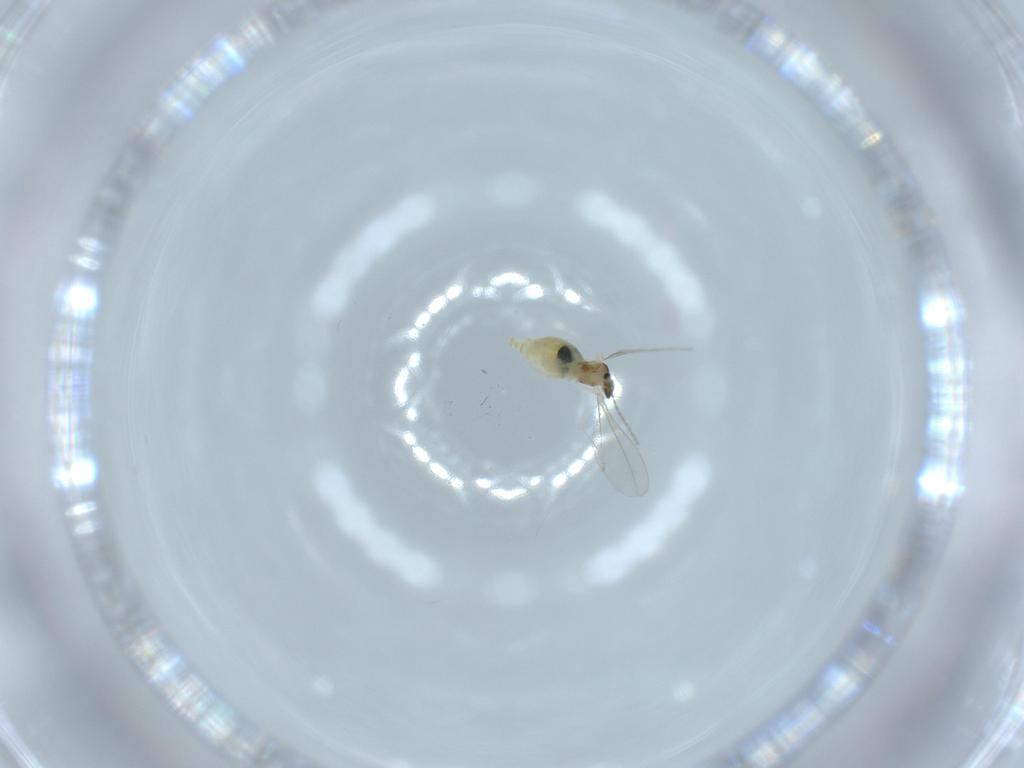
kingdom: Animalia
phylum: Arthropoda
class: Insecta
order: Diptera
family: Cecidomyiidae
